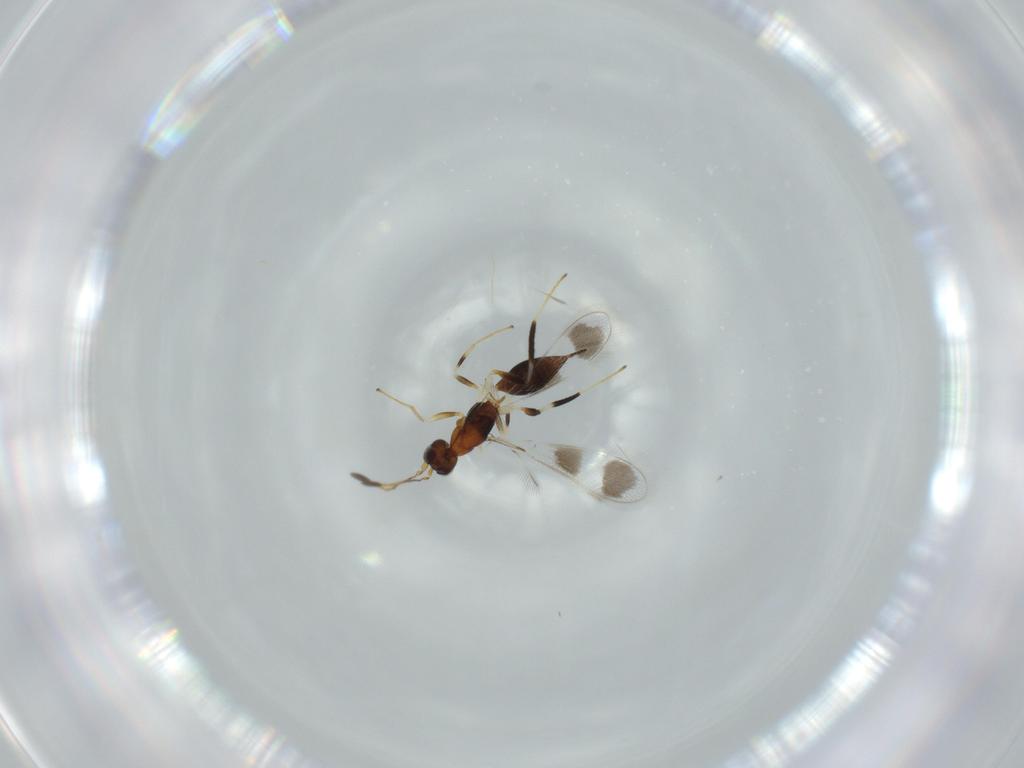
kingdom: Animalia
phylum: Arthropoda
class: Insecta
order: Hymenoptera
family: Mymaridae
